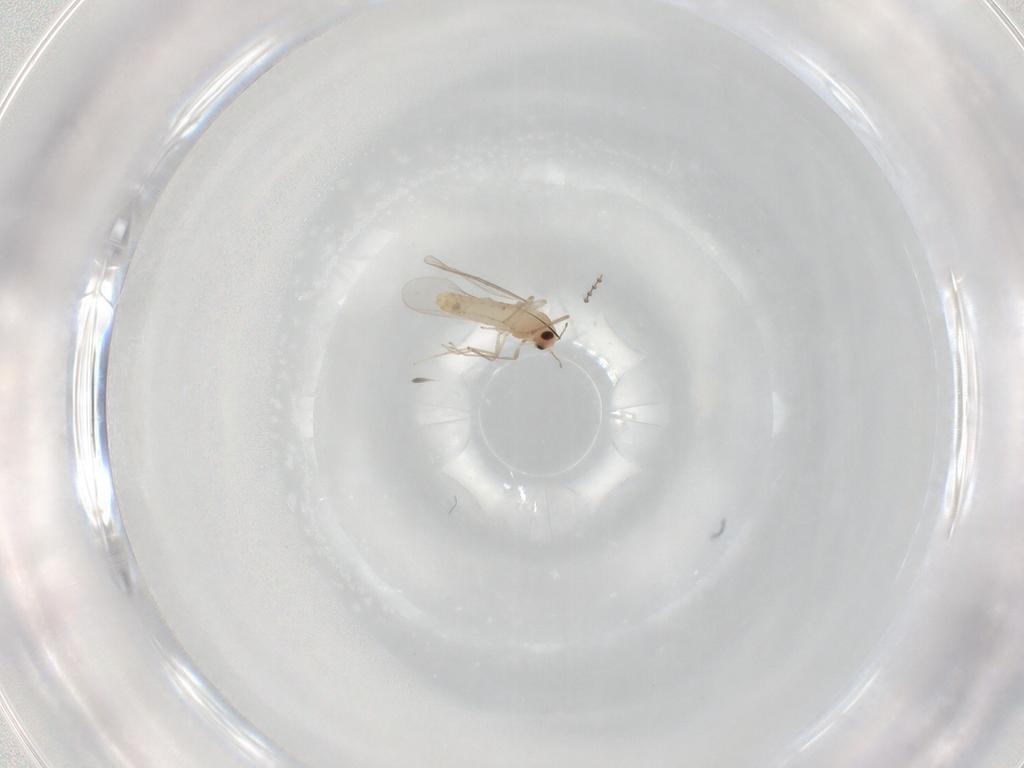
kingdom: Animalia
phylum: Arthropoda
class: Insecta
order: Diptera
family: Chironomidae
